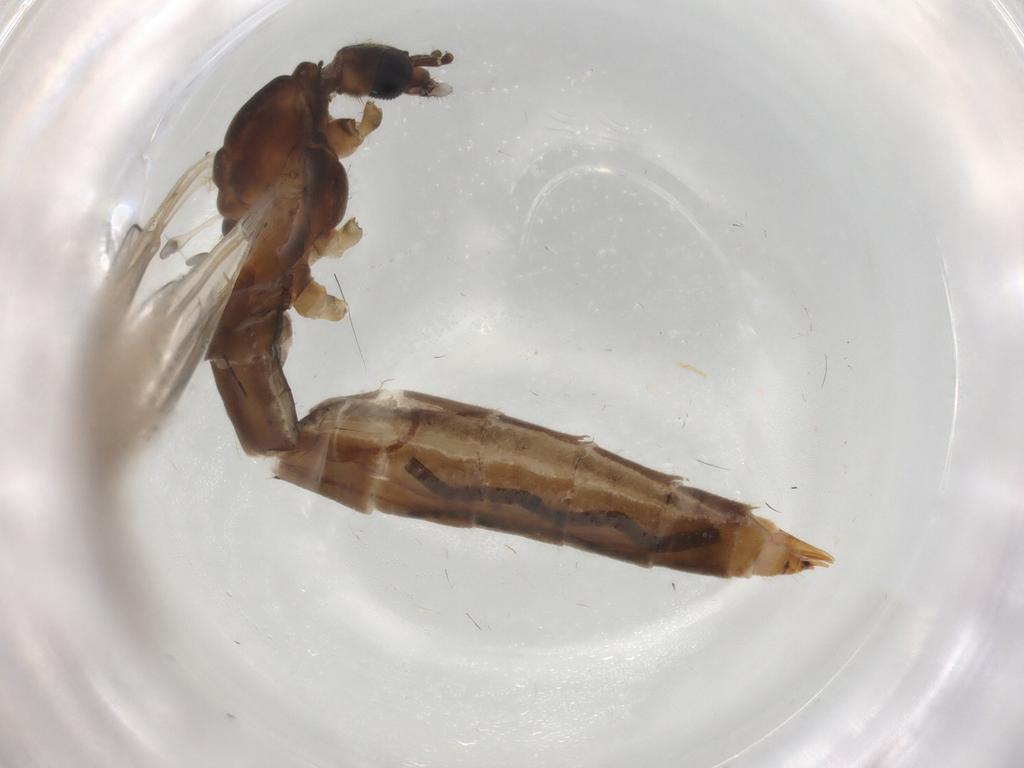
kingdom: Animalia
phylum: Arthropoda
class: Insecta
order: Diptera
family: Limoniidae
